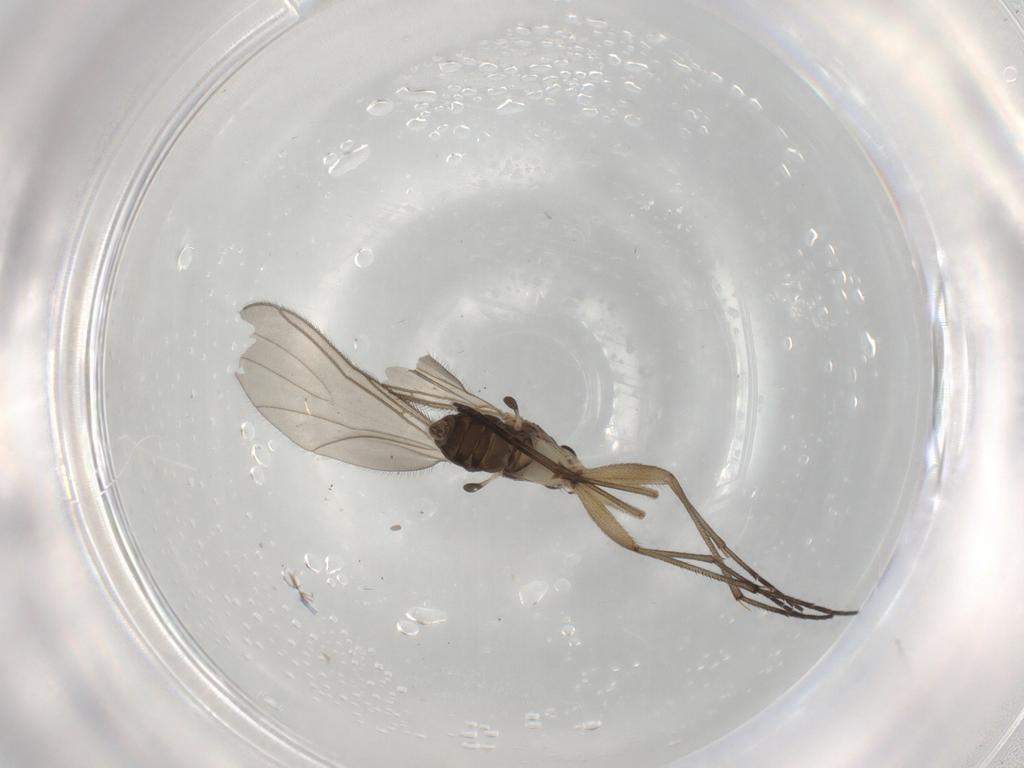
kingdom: Animalia
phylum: Arthropoda
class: Insecta
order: Diptera
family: Sciaridae
